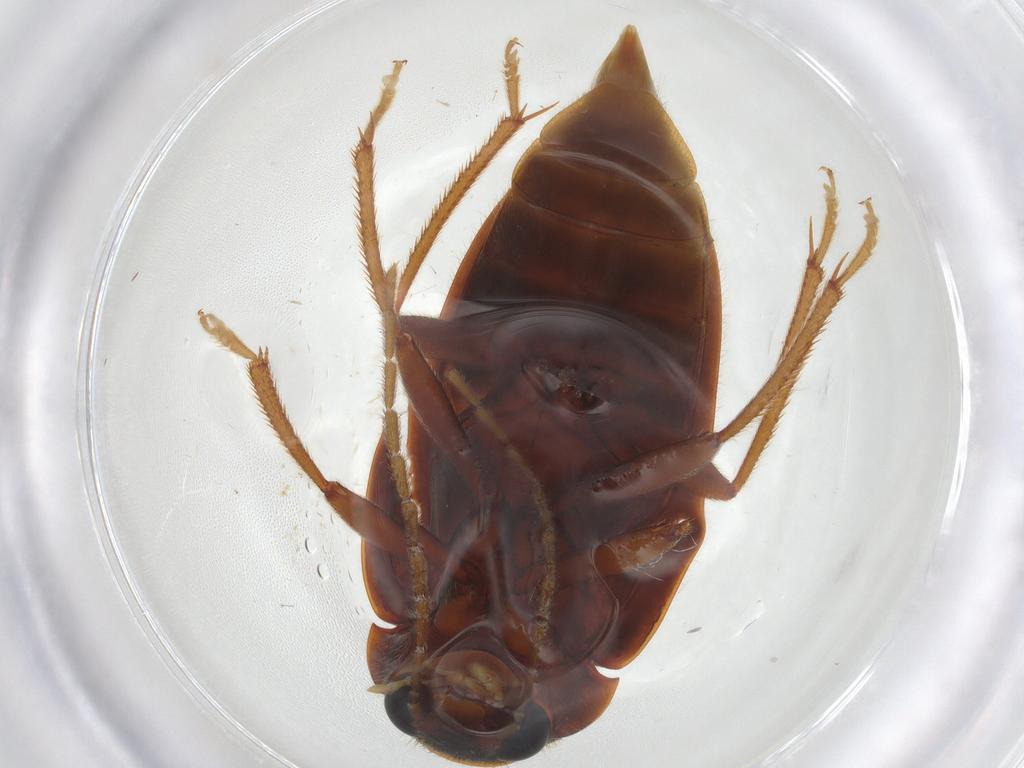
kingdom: Animalia
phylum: Arthropoda
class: Insecta
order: Coleoptera
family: Ptilodactylidae
